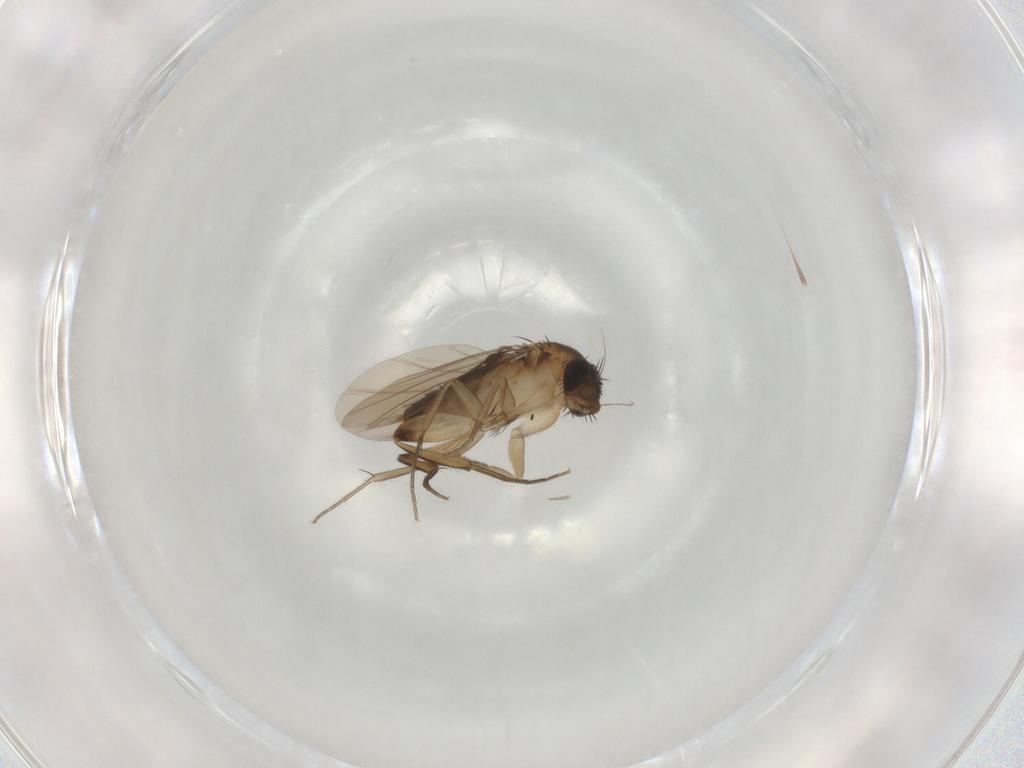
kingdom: Animalia
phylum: Arthropoda
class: Insecta
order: Diptera
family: Phoridae
